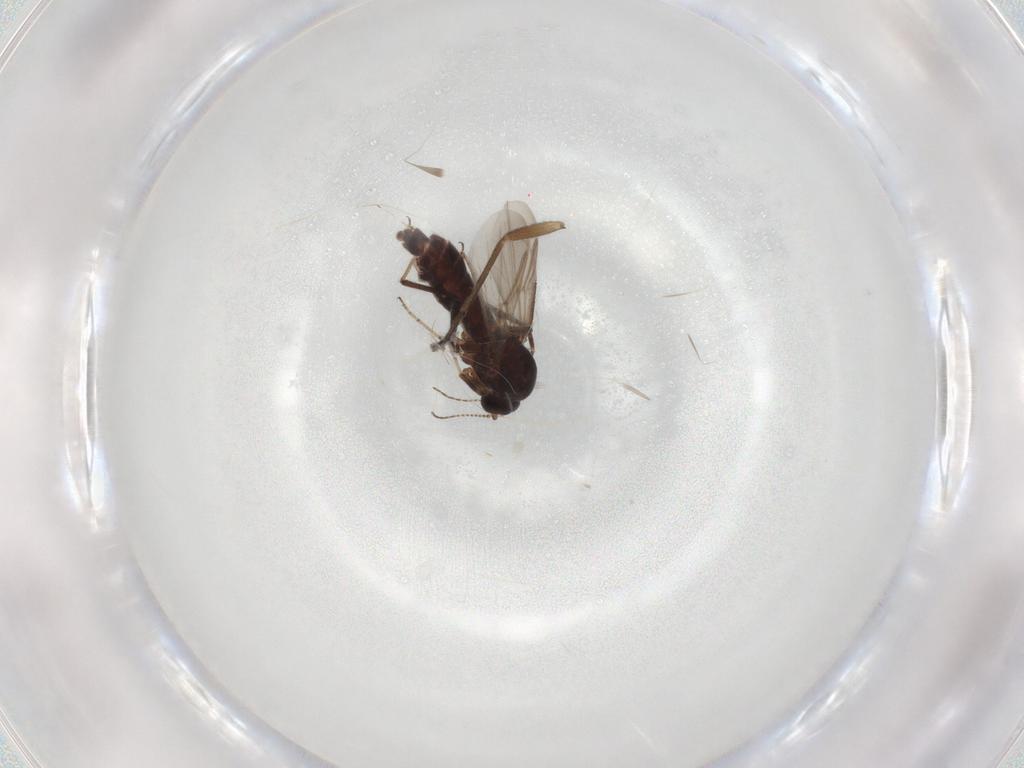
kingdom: Animalia
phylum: Arthropoda
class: Insecta
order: Diptera
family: Ceratopogonidae
